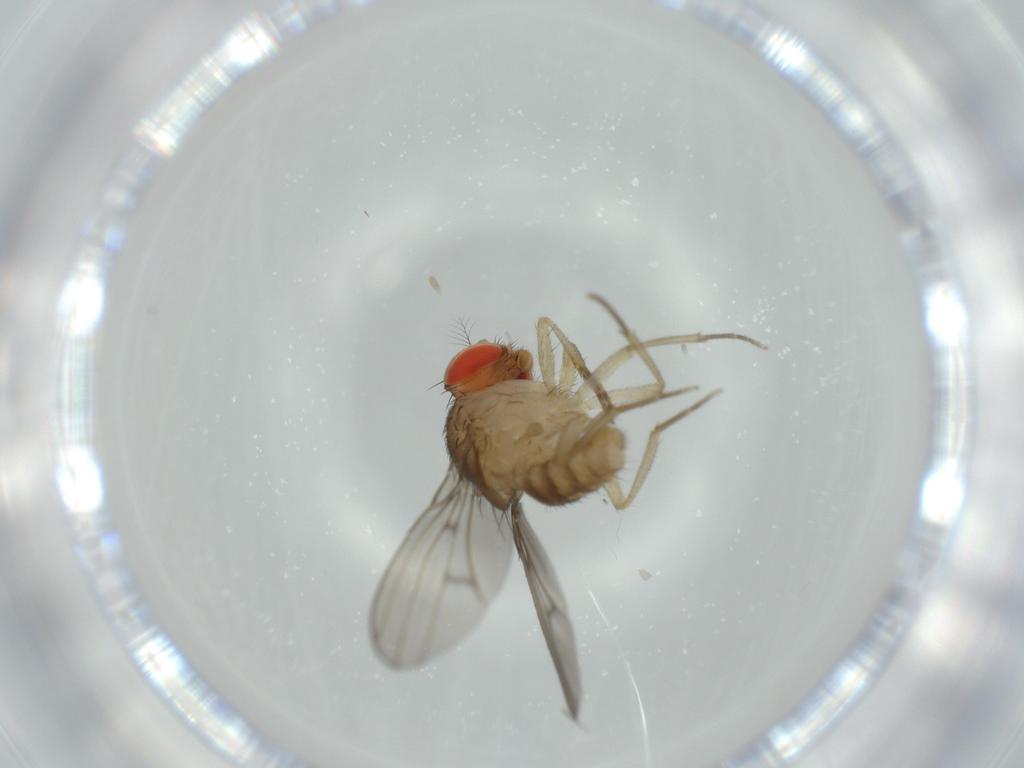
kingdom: Animalia
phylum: Arthropoda
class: Insecta
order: Diptera
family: Drosophilidae
